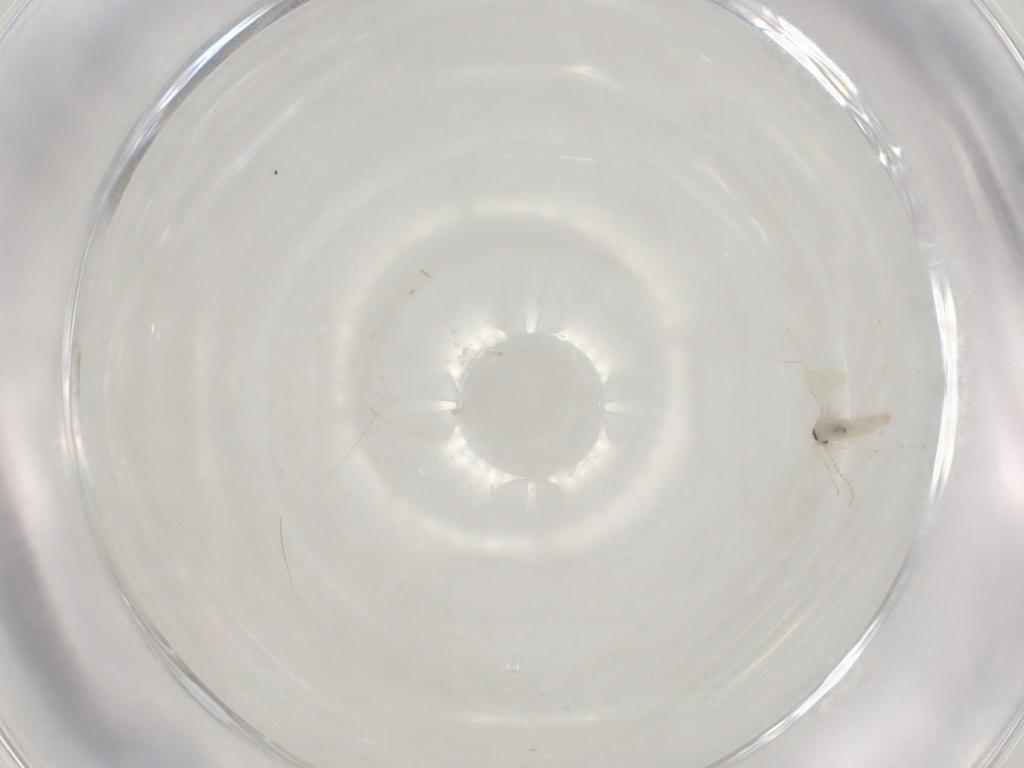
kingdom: Animalia
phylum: Arthropoda
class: Insecta
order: Diptera
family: Cecidomyiidae
